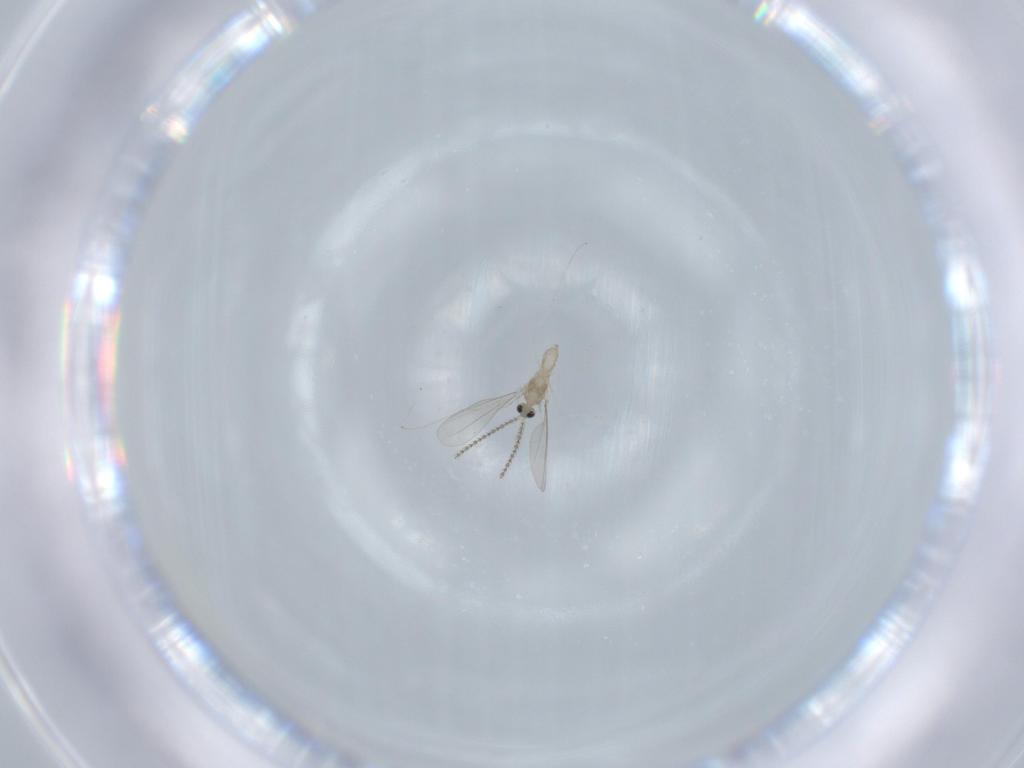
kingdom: Animalia
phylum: Arthropoda
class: Insecta
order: Diptera
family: Cecidomyiidae
